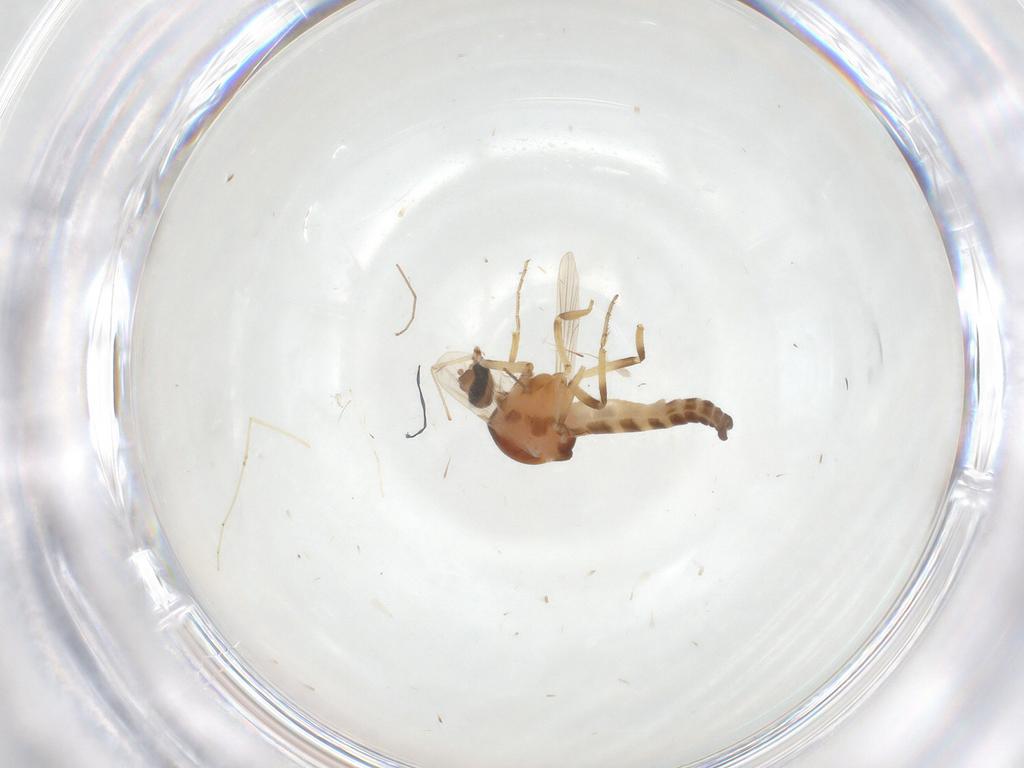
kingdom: Animalia
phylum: Arthropoda
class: Insecta
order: Diptera
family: Ceratopogonidae
